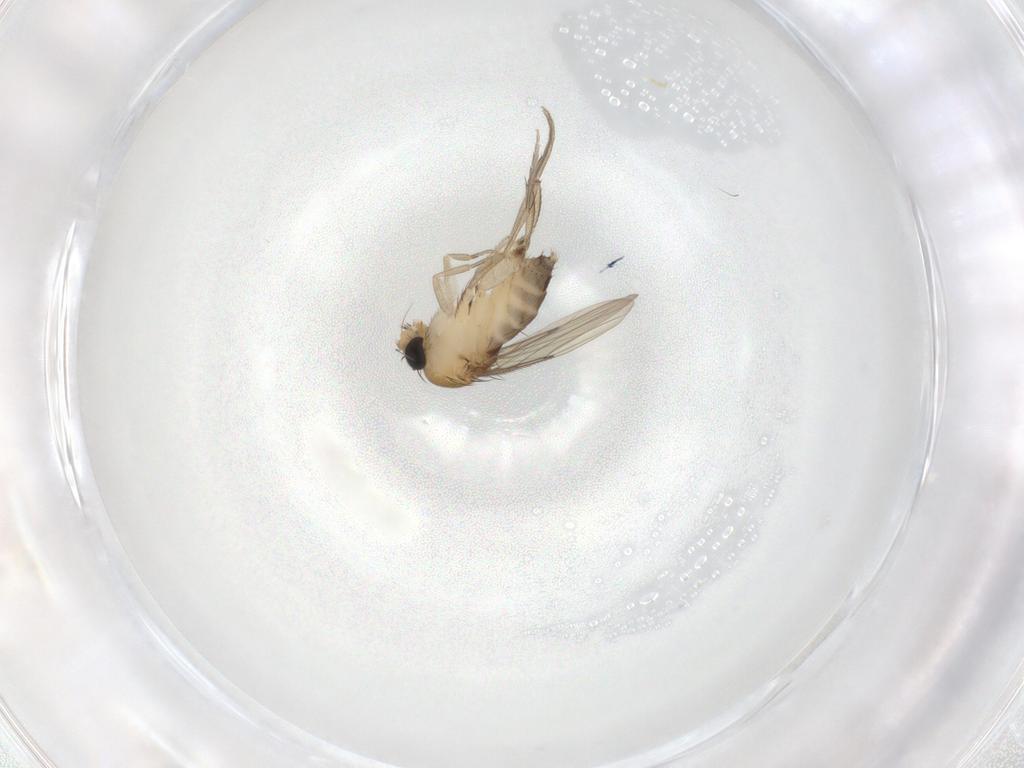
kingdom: Animalia
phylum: Arthropoda
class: Insecta
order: Diptera
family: Phoridae
